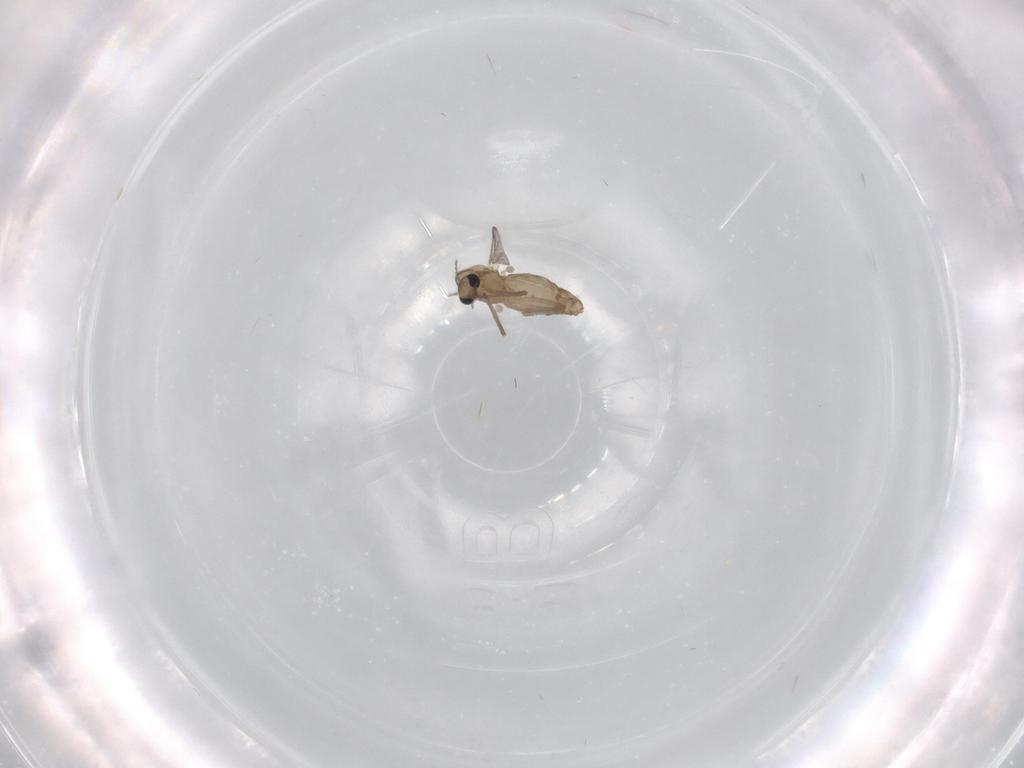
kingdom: Animalia
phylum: Arthropoda
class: Insecta
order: Diptera
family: Chironomidae
